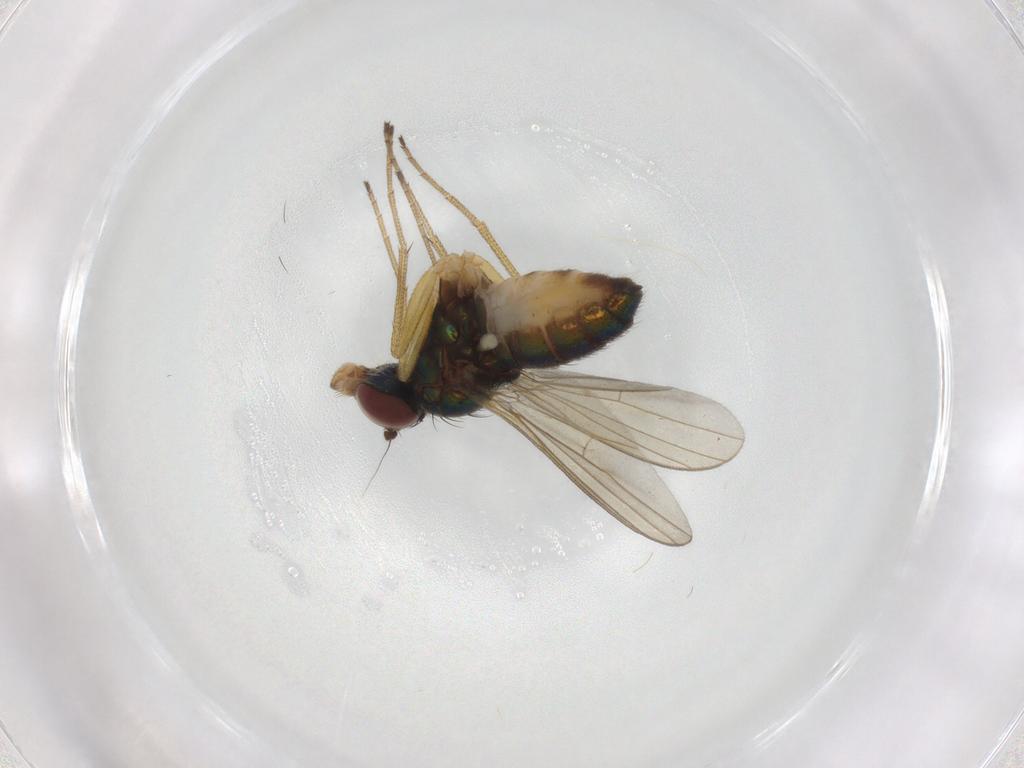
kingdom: Animalia
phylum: Arthropoda
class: Insecta
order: Diptera
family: Dolichopodidae
